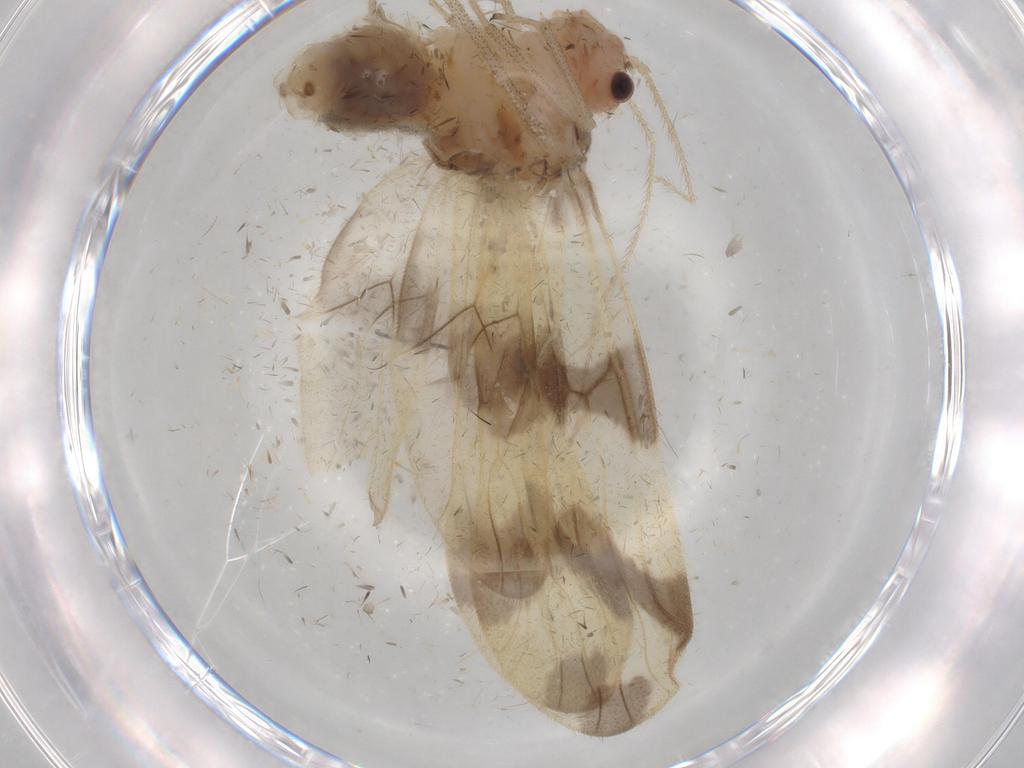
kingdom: Animalia
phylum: Arthropoda
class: Insecta
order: Psocodea
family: Amphipsocidae
